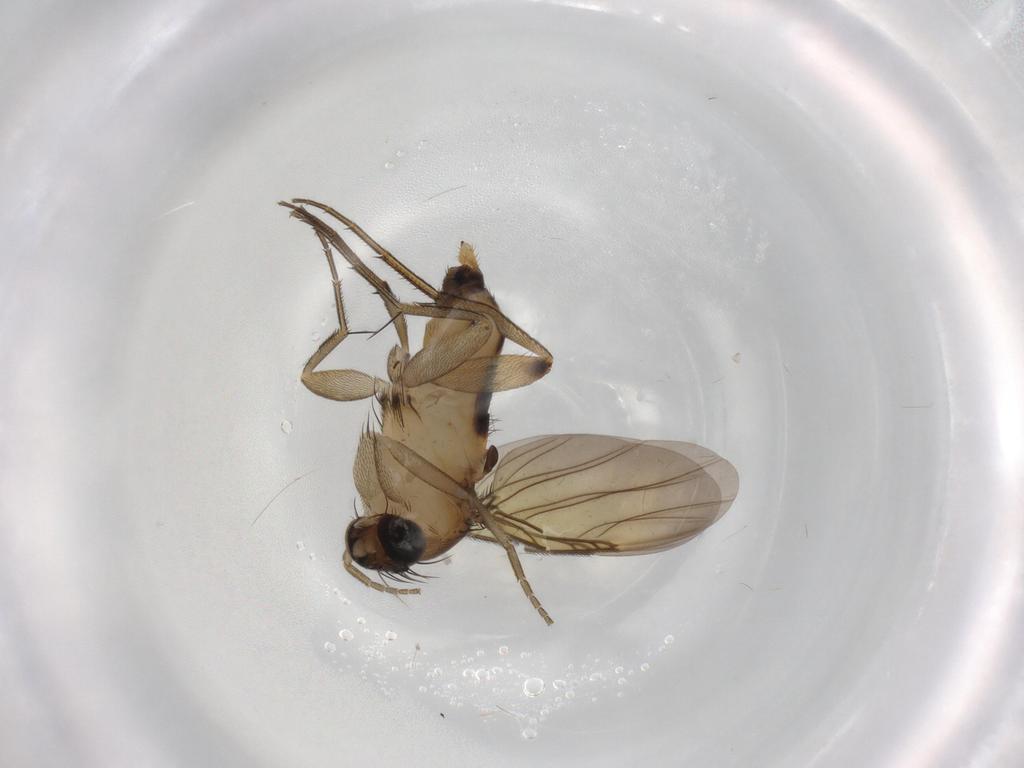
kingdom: Animalia
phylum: Arthropoda
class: Insecta
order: Diptera
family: Phoridae
